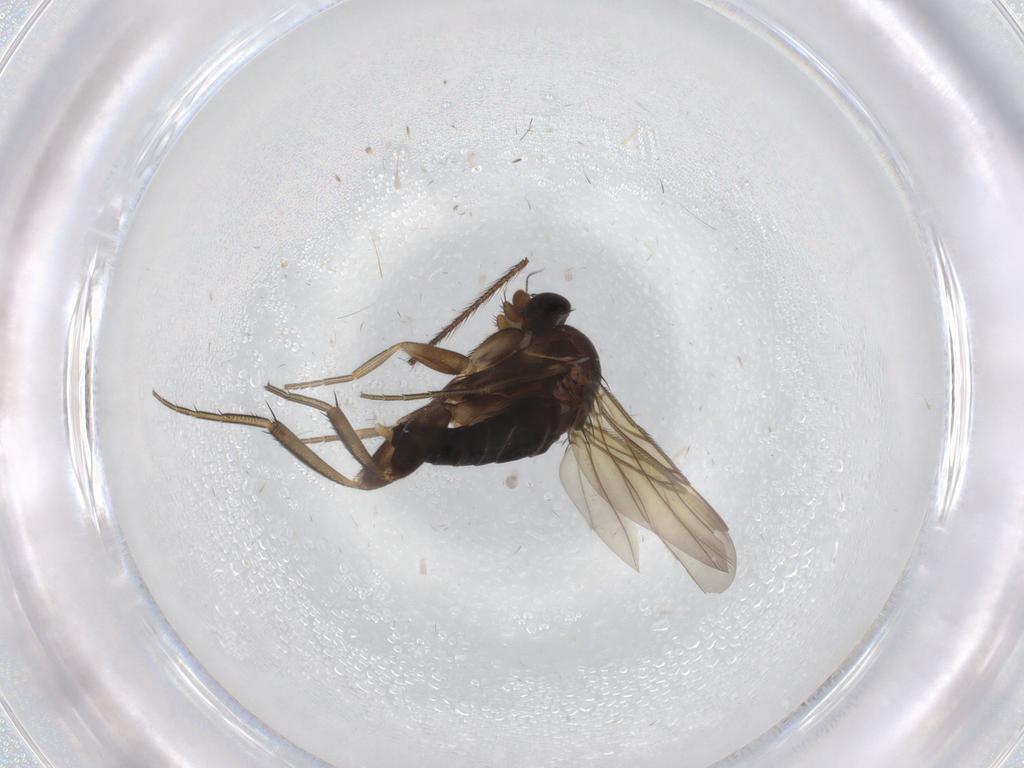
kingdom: Animalia
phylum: Arthropoda
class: Insecta
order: Diptera
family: Phoridae
